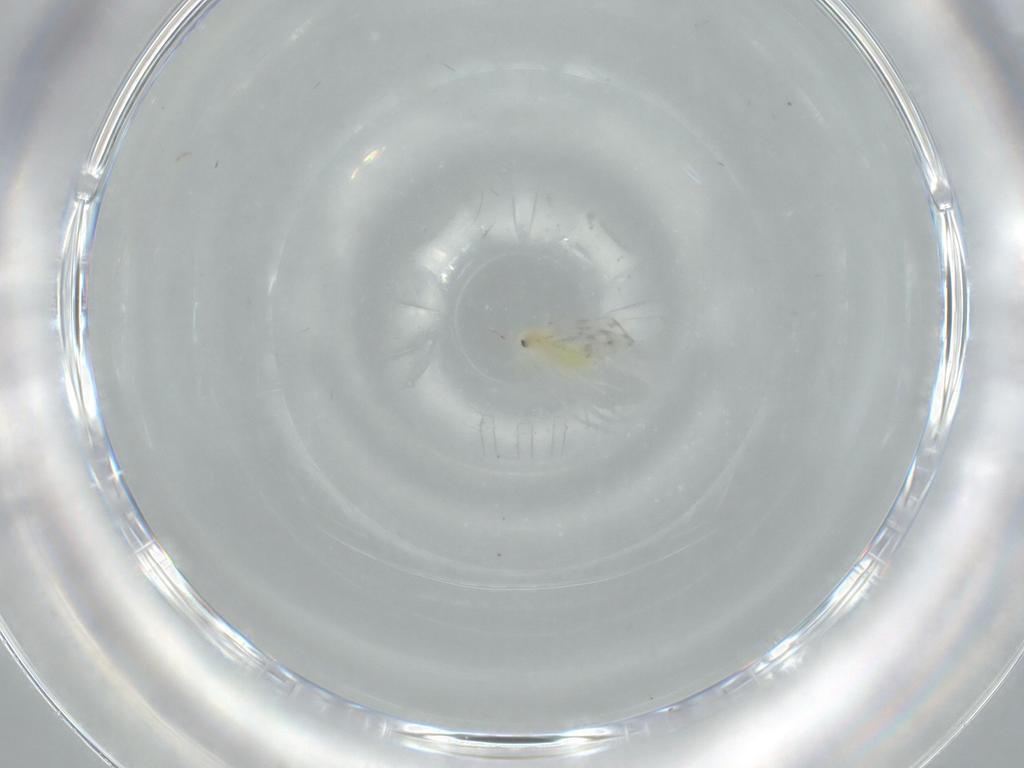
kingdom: Animalia
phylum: Arthropoda
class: Insecta
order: Hemiptera
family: Aleyrodidae
